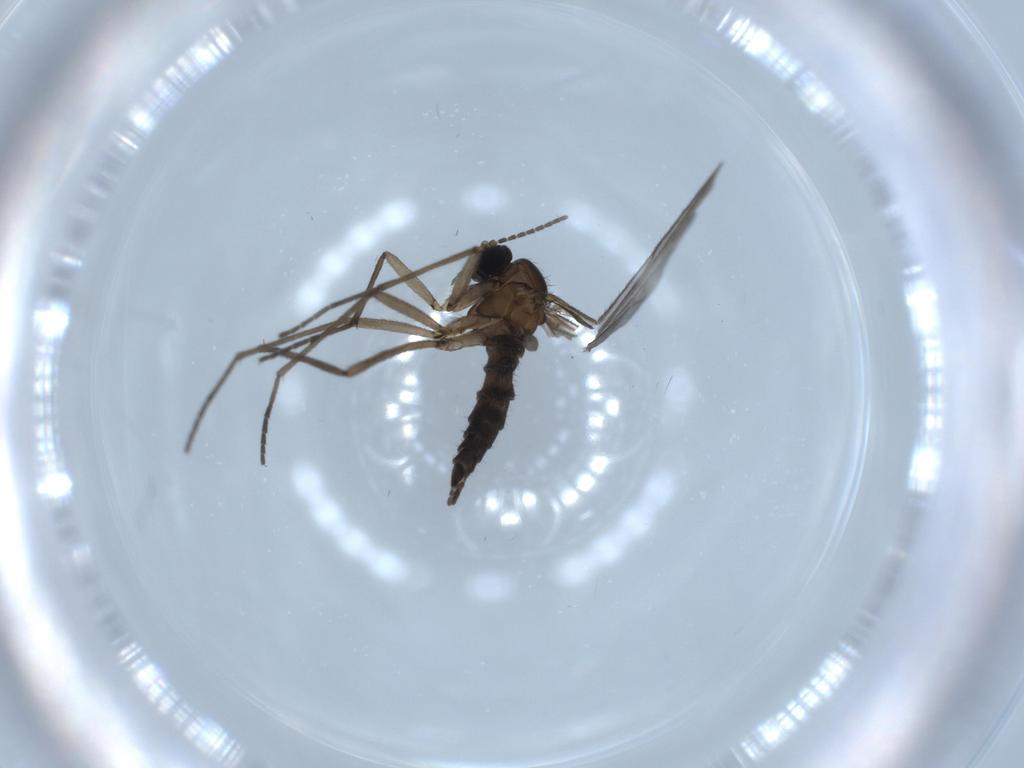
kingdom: Animalia
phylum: Arthropoda
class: Insecta
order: Diptera
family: Sciaridae
